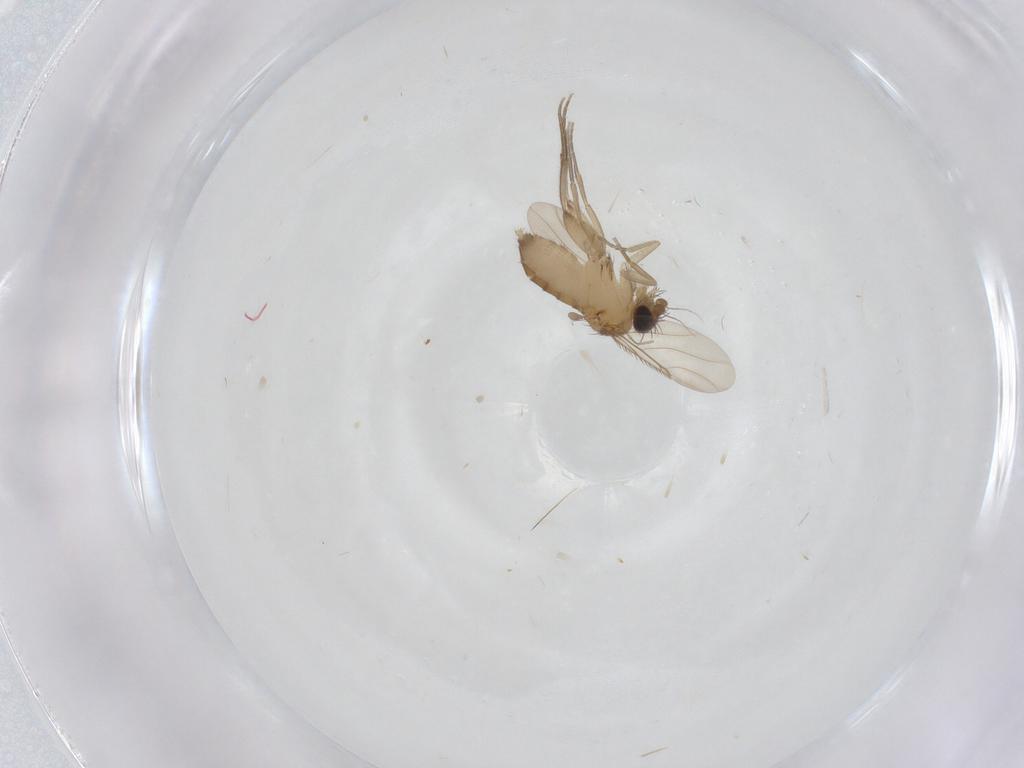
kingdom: Animalia
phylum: Arthropoda
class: Insecta
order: Diptera
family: Phoridae
